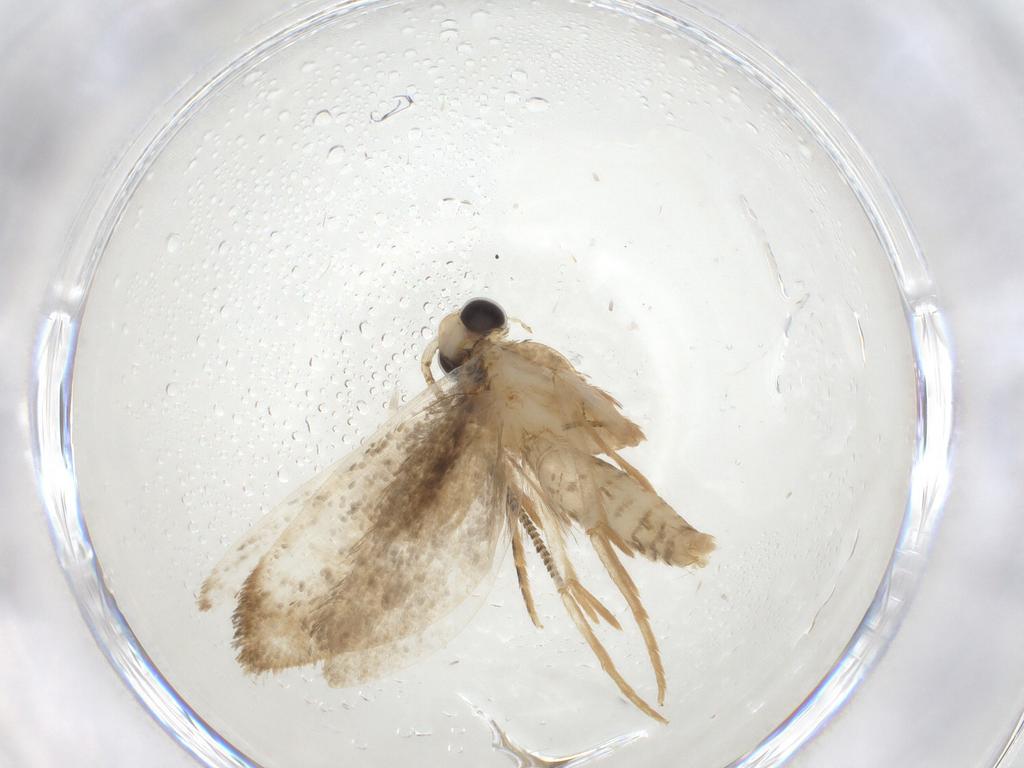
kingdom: Animalia
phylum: Arthropoda
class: Insecta
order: Lepidoptera
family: Tineidae
